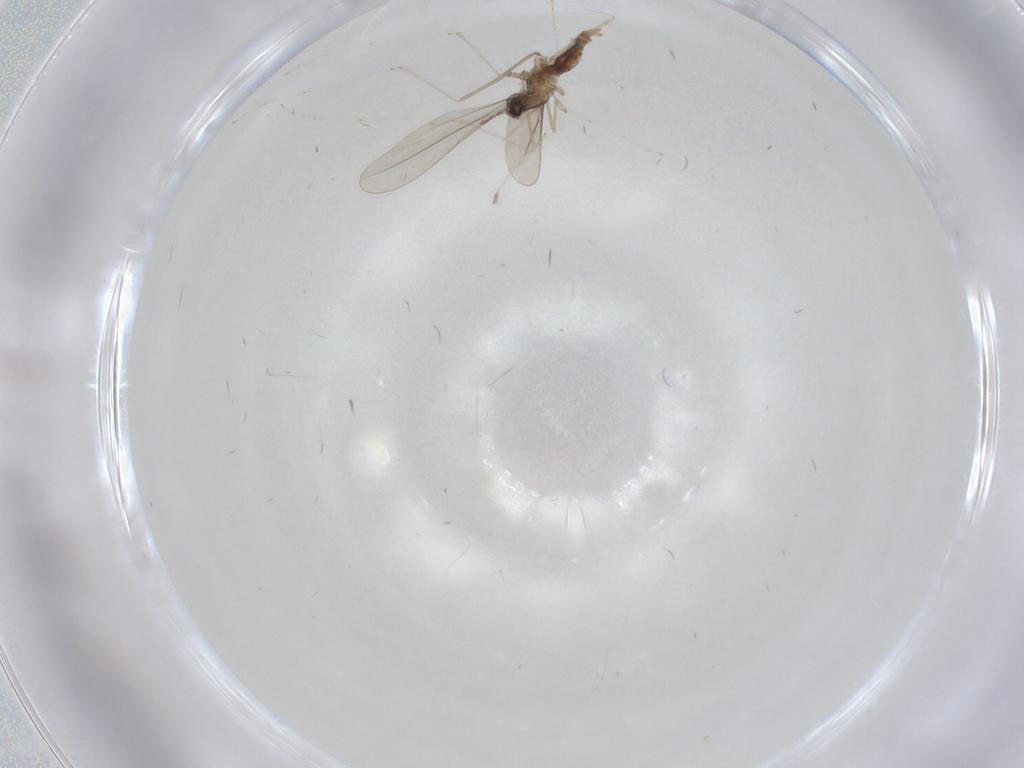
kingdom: Animalia
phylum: Arthropoda
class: Insecta
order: Diptera
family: Cecidomyiidae
